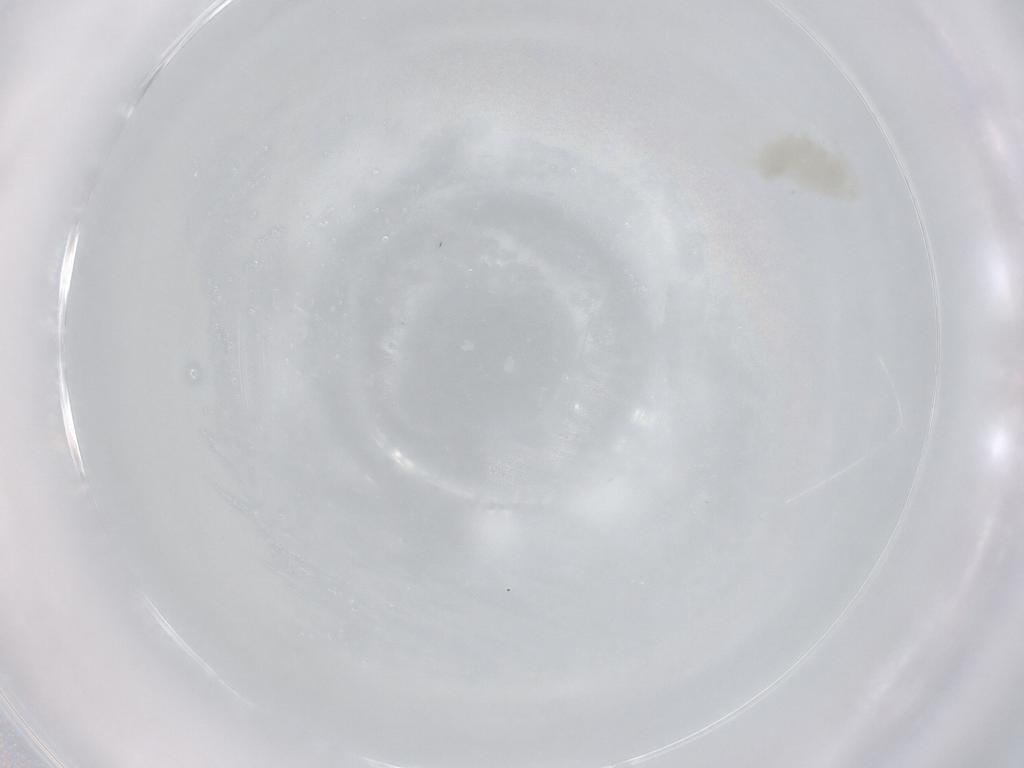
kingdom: Animalia
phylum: Arthropoda
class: Copepoda
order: Calanoida
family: Centropagidae
